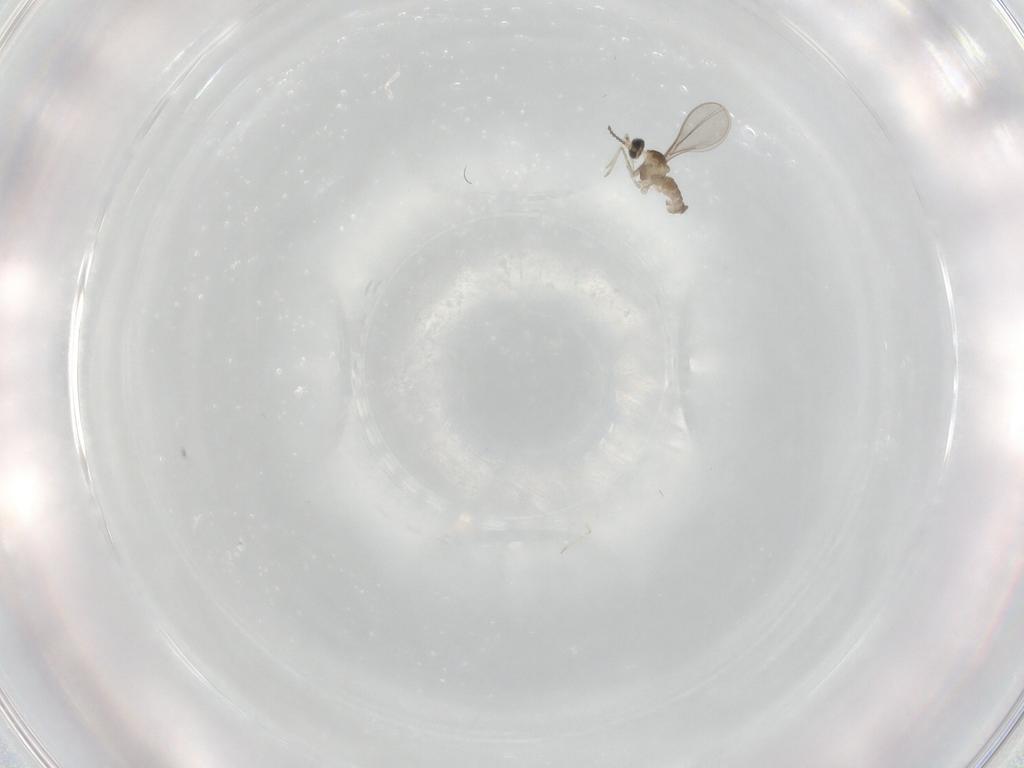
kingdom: Animalia
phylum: Arthropoda
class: Insecta
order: Diptera
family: Cecidomyiidae
